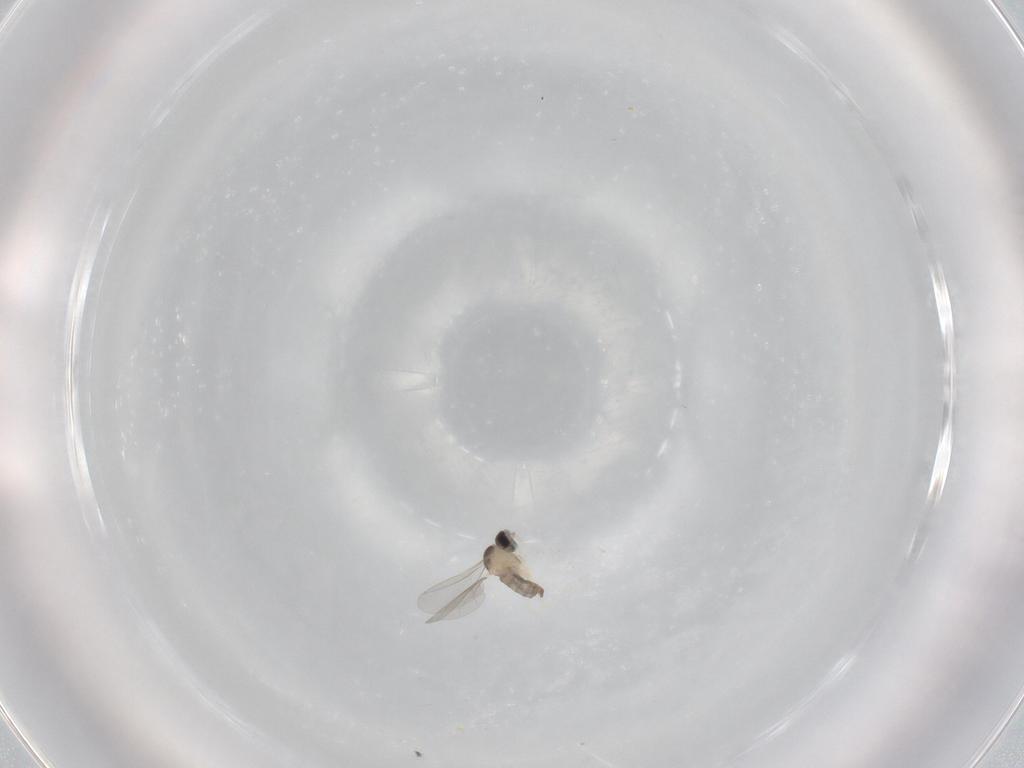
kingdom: Animalia
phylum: Arthropoda
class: Insecta
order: Diptera
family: Cecidomyiidae
